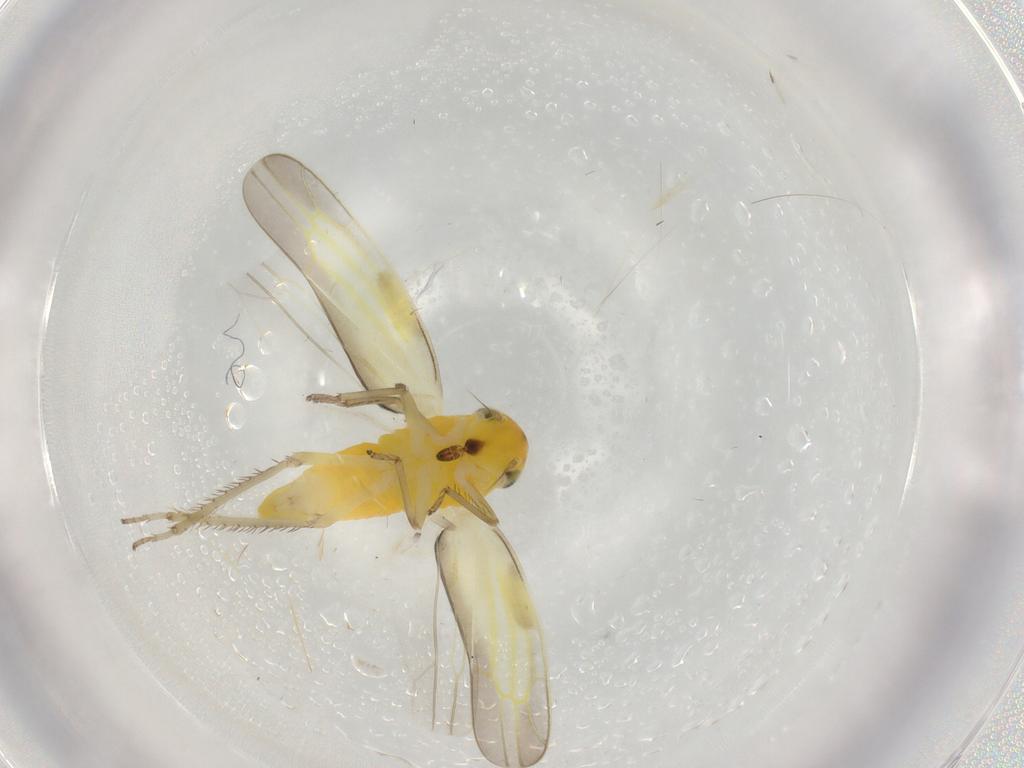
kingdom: Animalia
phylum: Arthropoda
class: Insecta
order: Hemiptera
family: Cicadellidae
